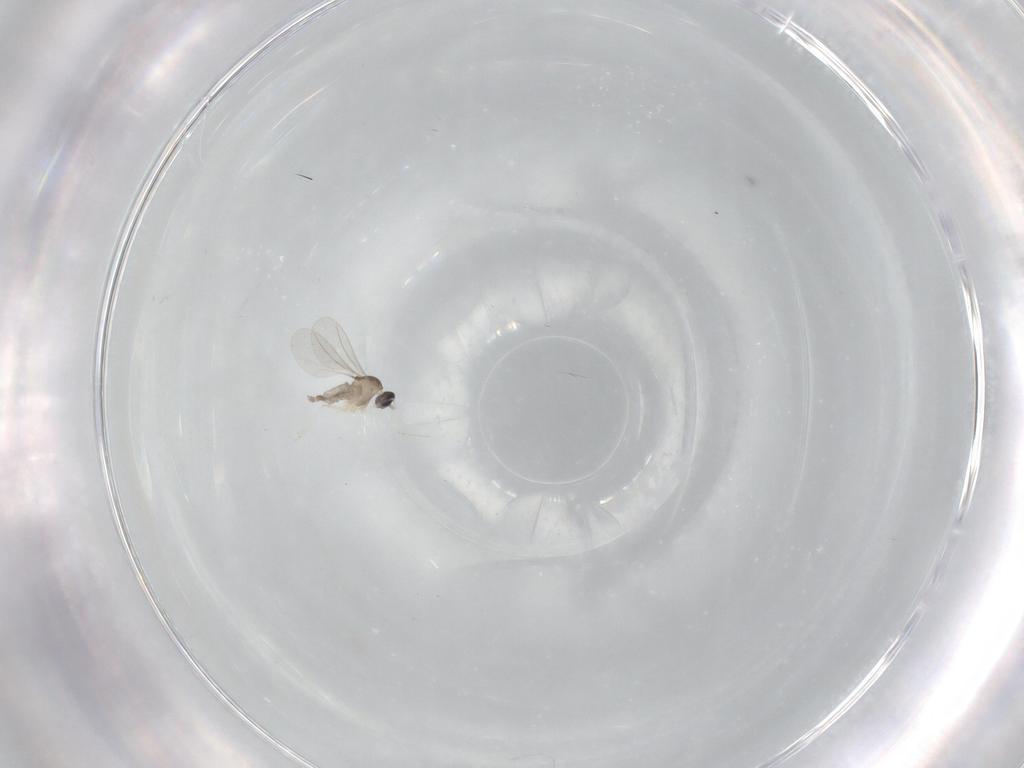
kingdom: Animalia
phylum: Arthropoda
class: Insecta
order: Diptera
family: Cecidomyiidae
